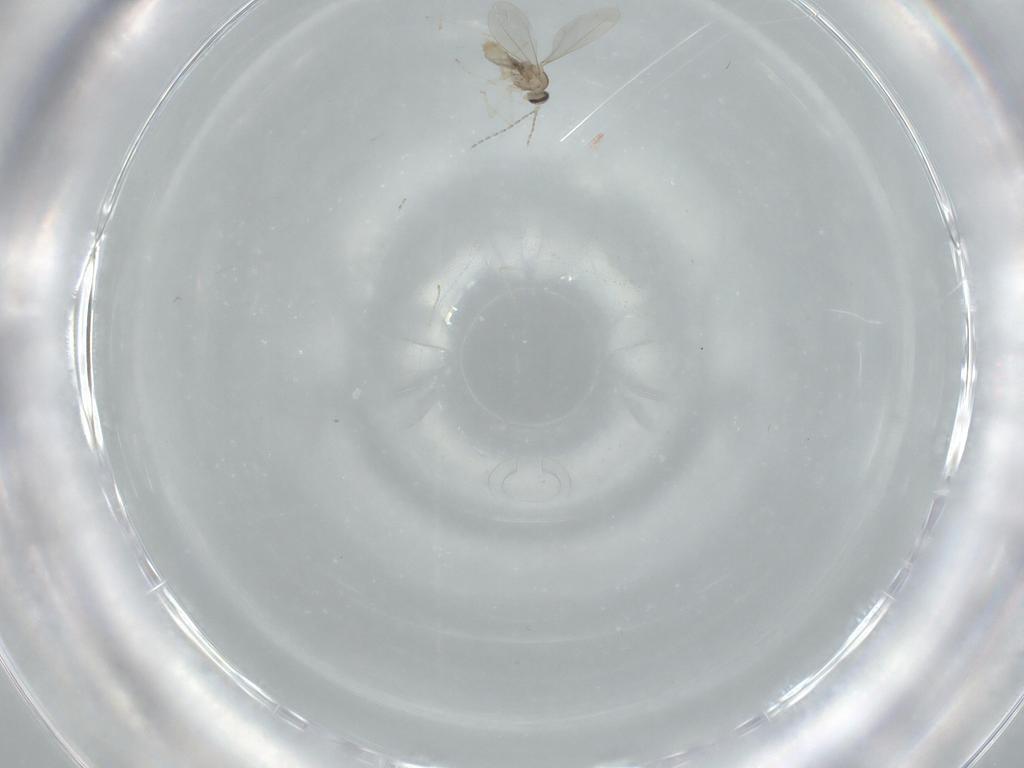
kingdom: Animalia
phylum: Arthropoda
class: Insecta
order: Diptera
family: Cecidomyiidae
